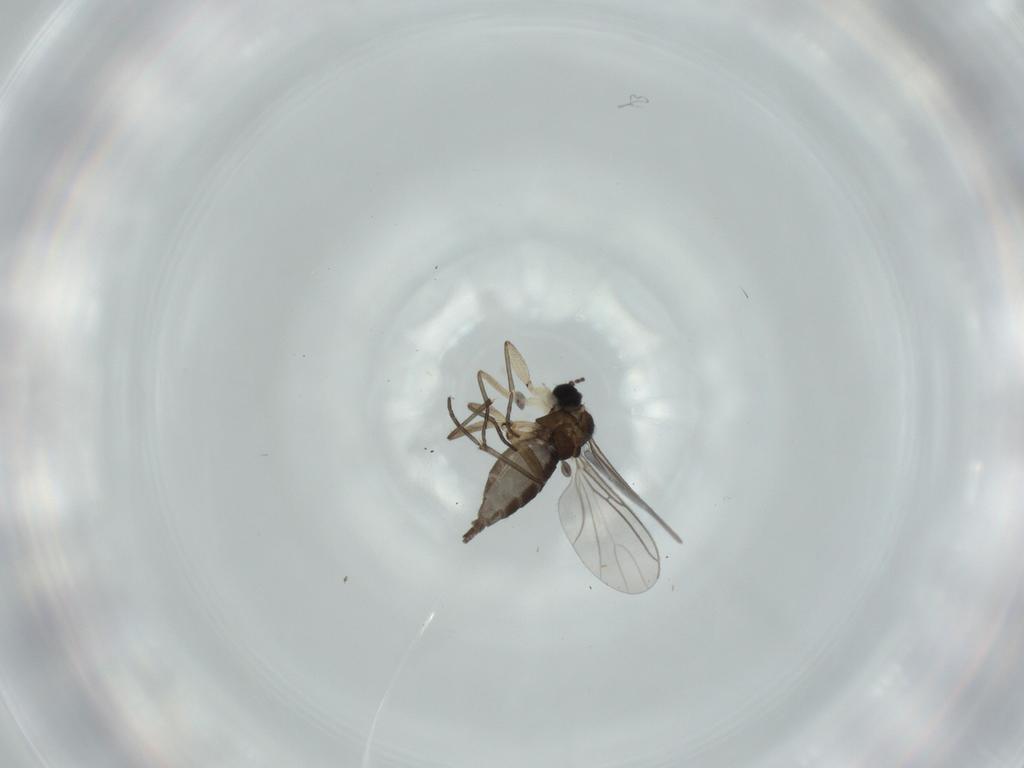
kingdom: Animalia
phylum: Arthropoda
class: Insecta
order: Diptera
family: Sciaridae
